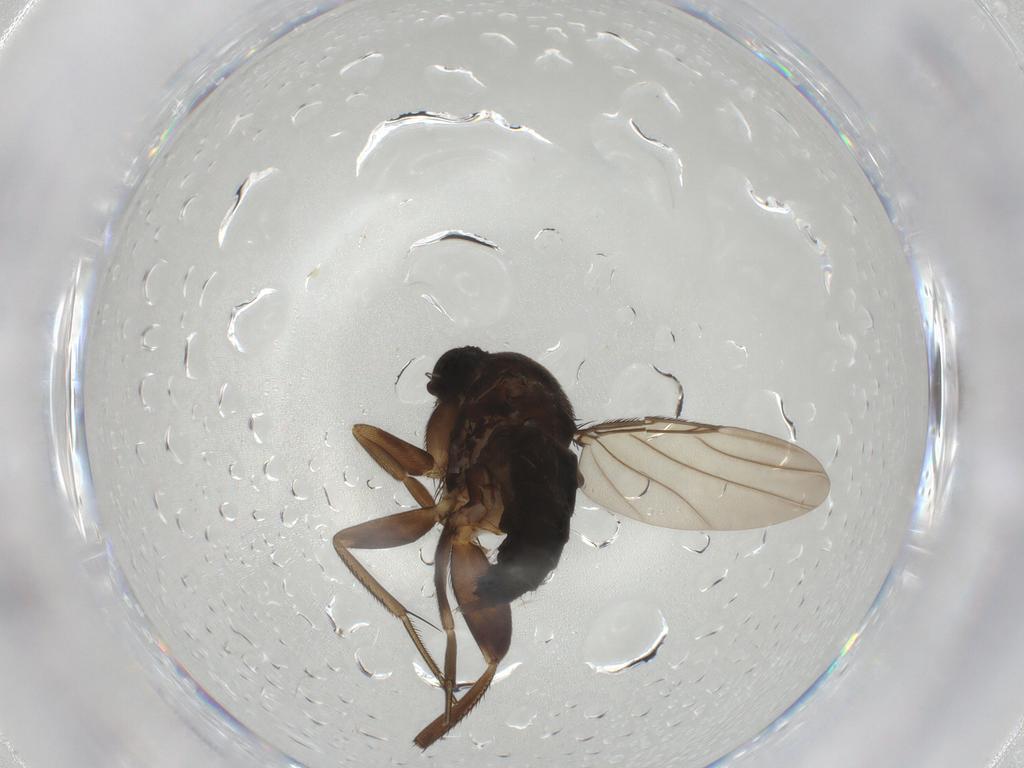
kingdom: Animalia
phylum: Arthropoda
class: Insecta
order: Diptera
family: Phoridae
